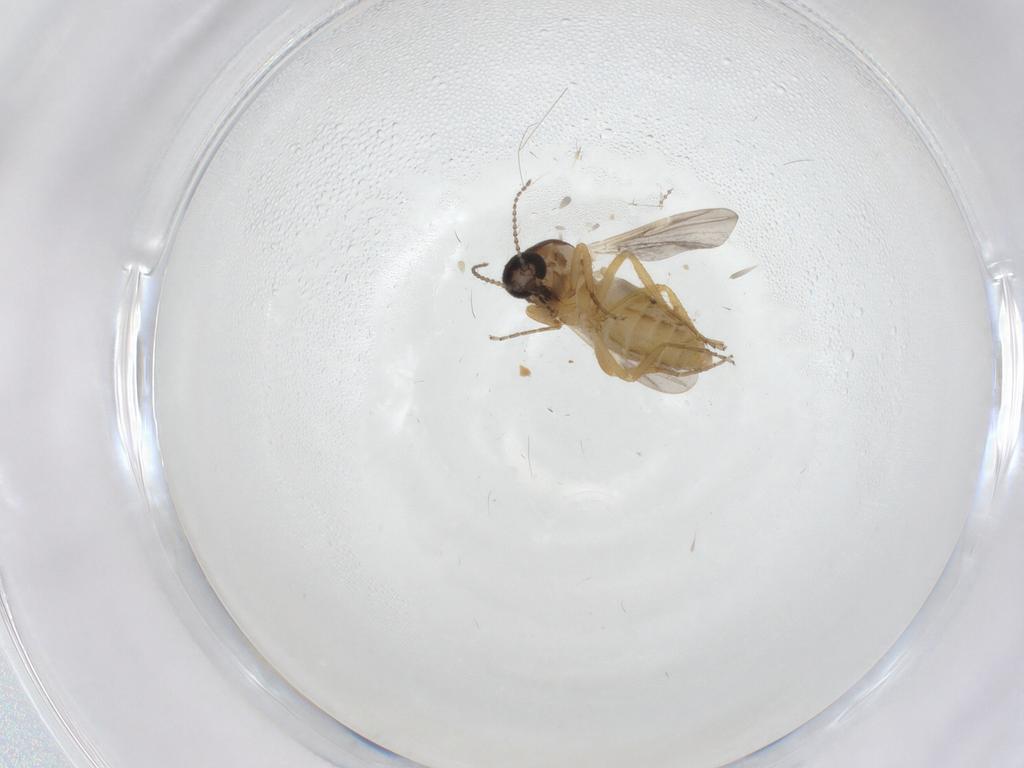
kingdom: Animalia
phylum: Arthropoda
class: Insecta
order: Diptera
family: Ceratopogonidae
